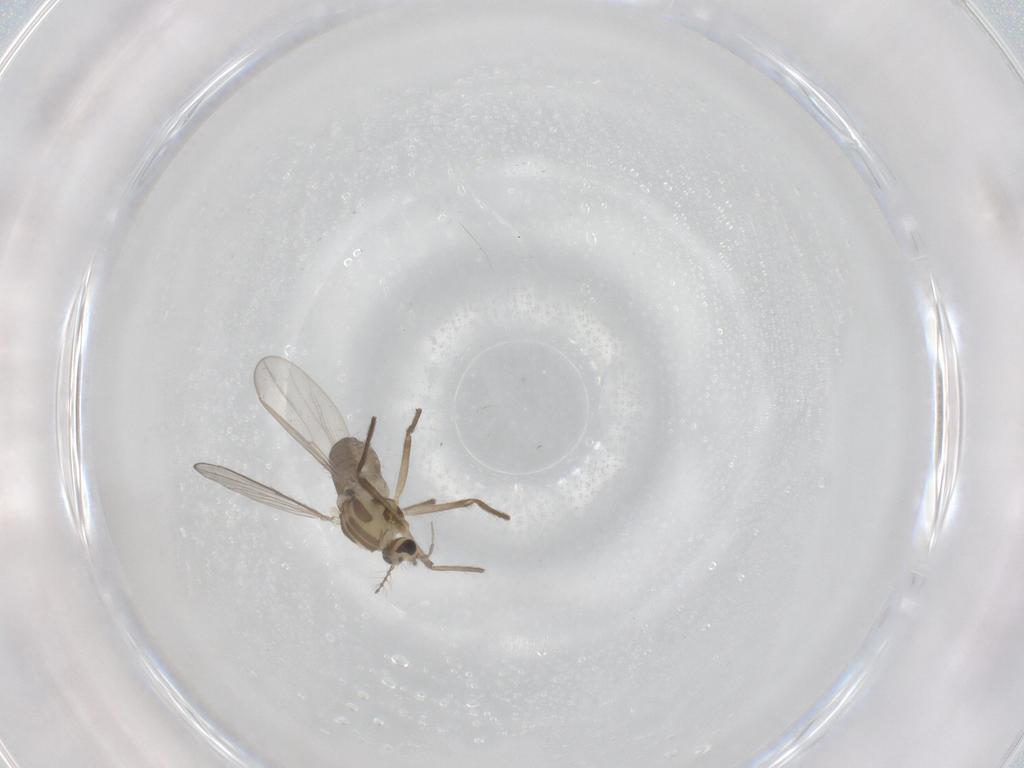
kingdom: Animalia
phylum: Arthropoda
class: Insecta
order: Diptera
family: Chironomidae
